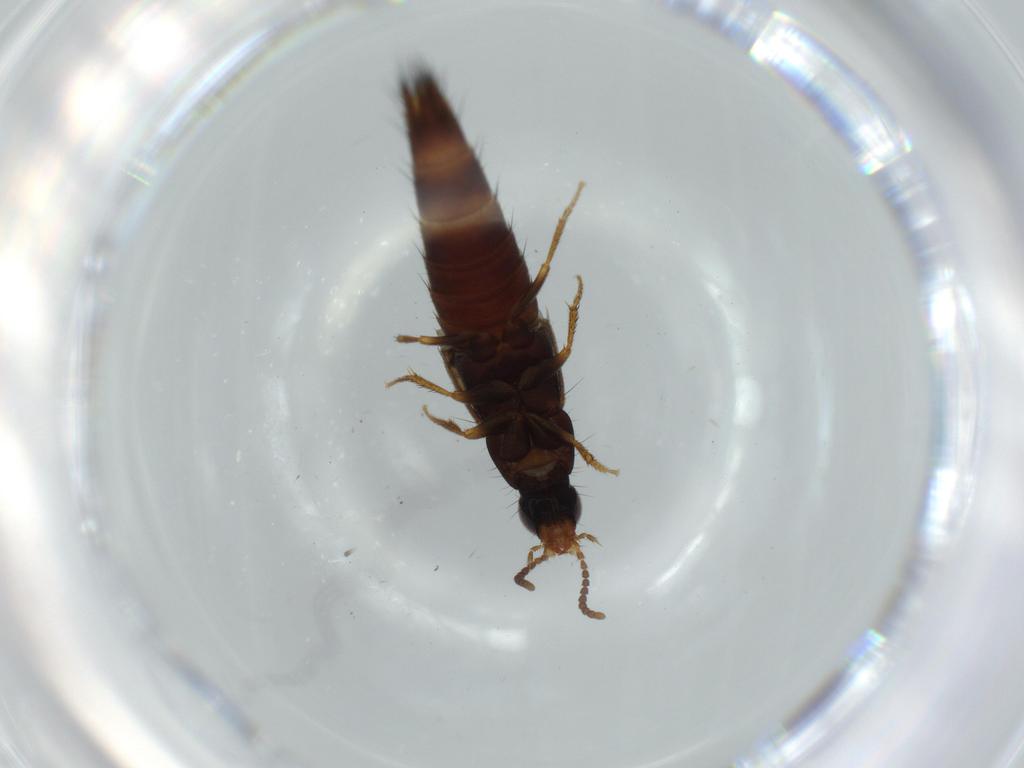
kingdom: Animalia
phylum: Arthropoda
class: Insecta
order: Coleoptera
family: Staphylinidae
